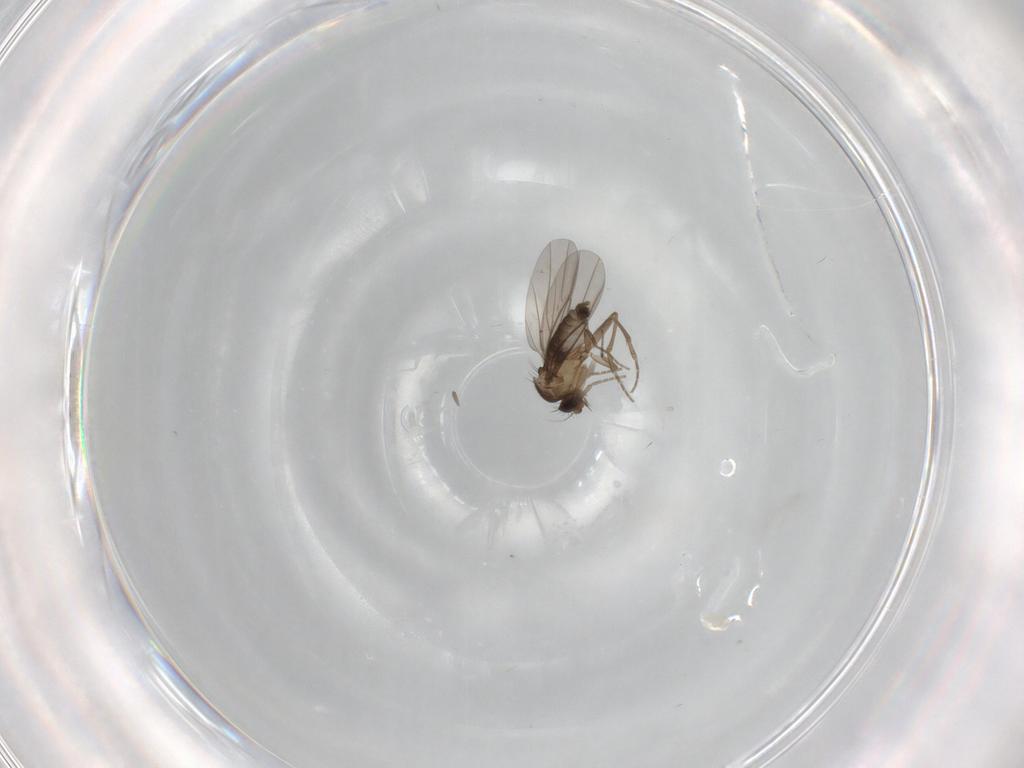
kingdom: Animalia
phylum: Arthropoda
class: Insecta
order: Diptera
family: Phoridae
